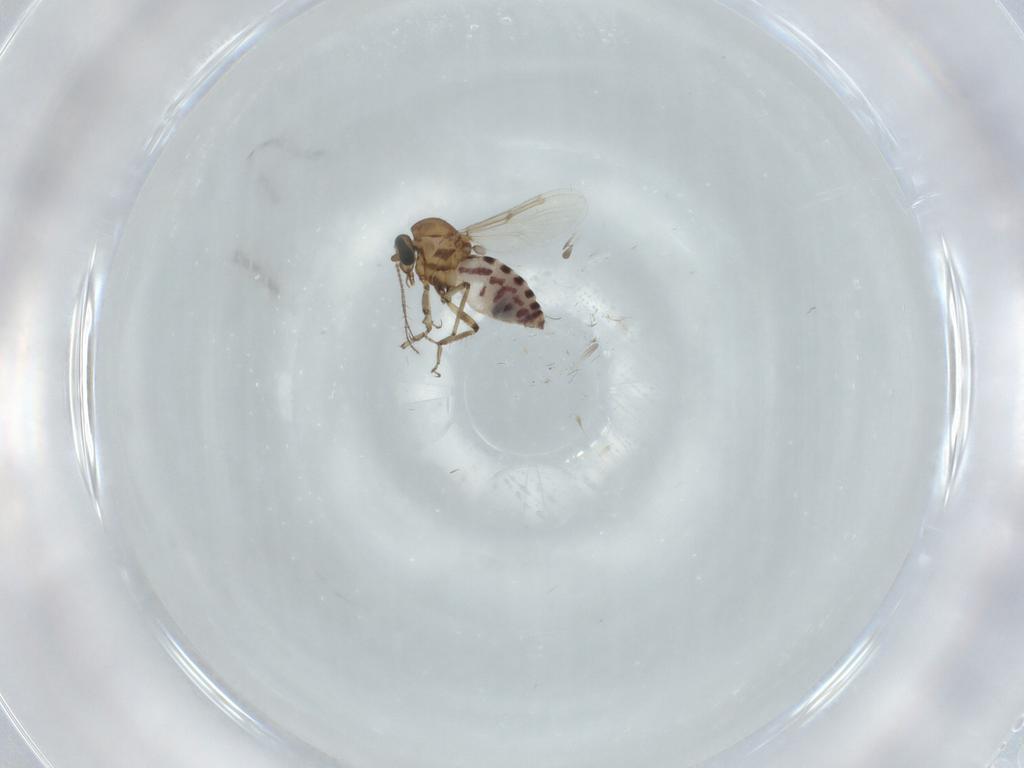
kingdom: Animalia
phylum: Arthropoda
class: Insecta
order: Diptera
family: Ceratopogonidae
